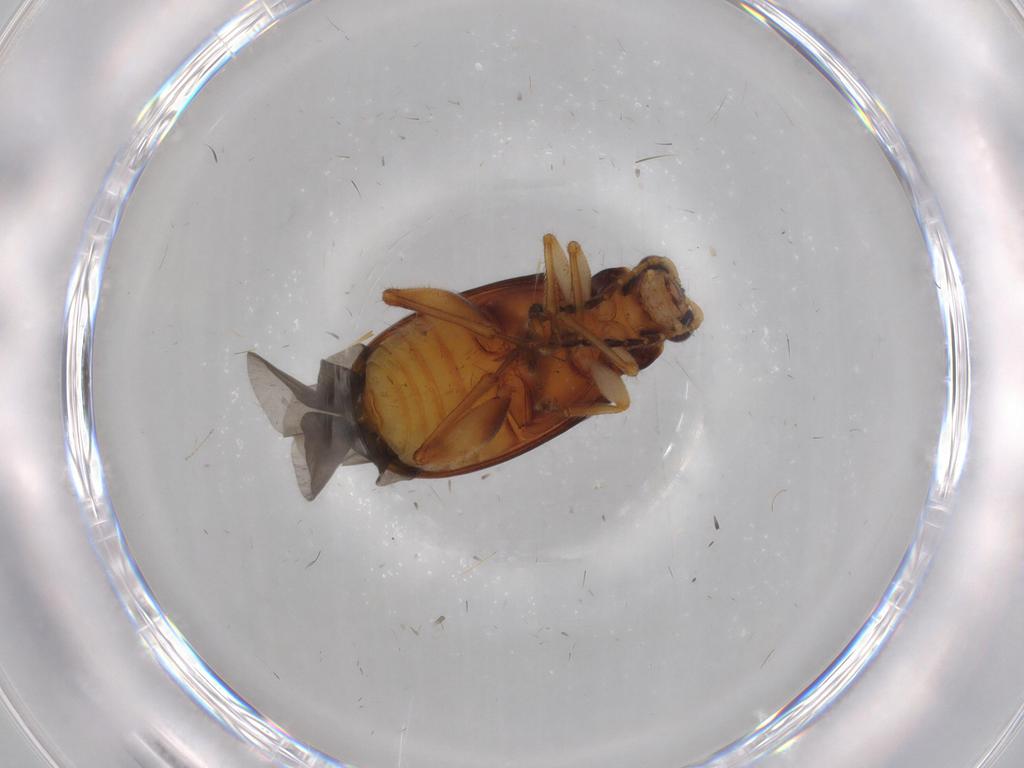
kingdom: Animalia
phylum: Arthropoda
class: Insecta
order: Coleoptera
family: Chrysomelidae
